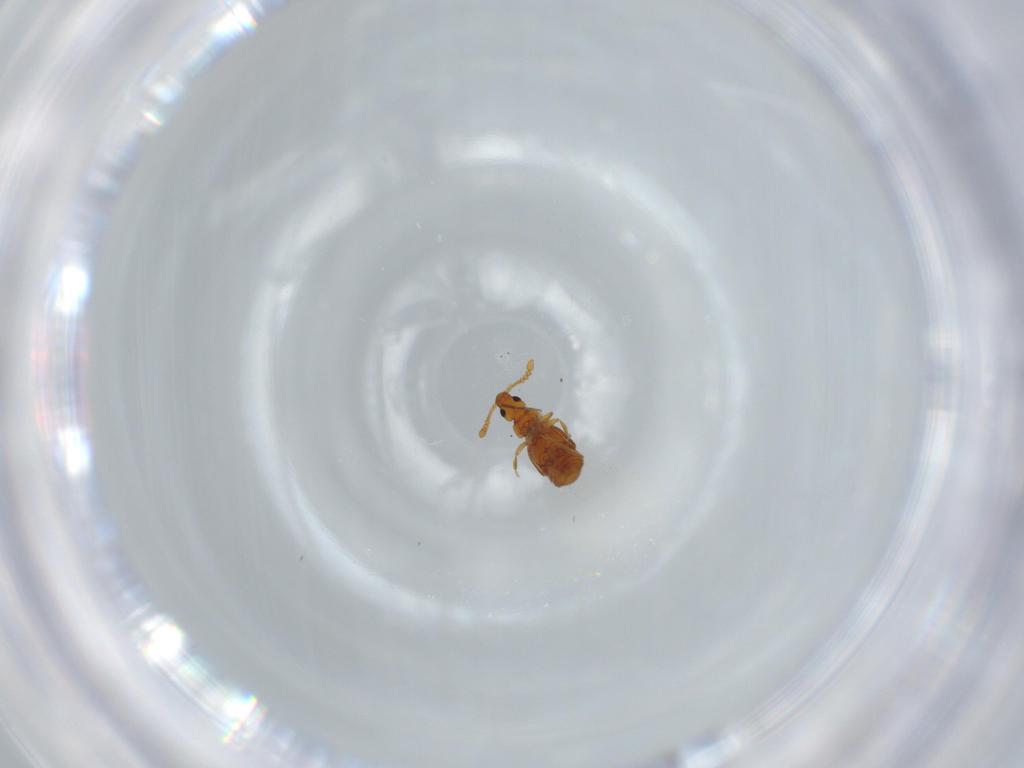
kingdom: Animalia
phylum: Arthropoda
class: Insecta
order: Coleoptera
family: Staphylinidae
